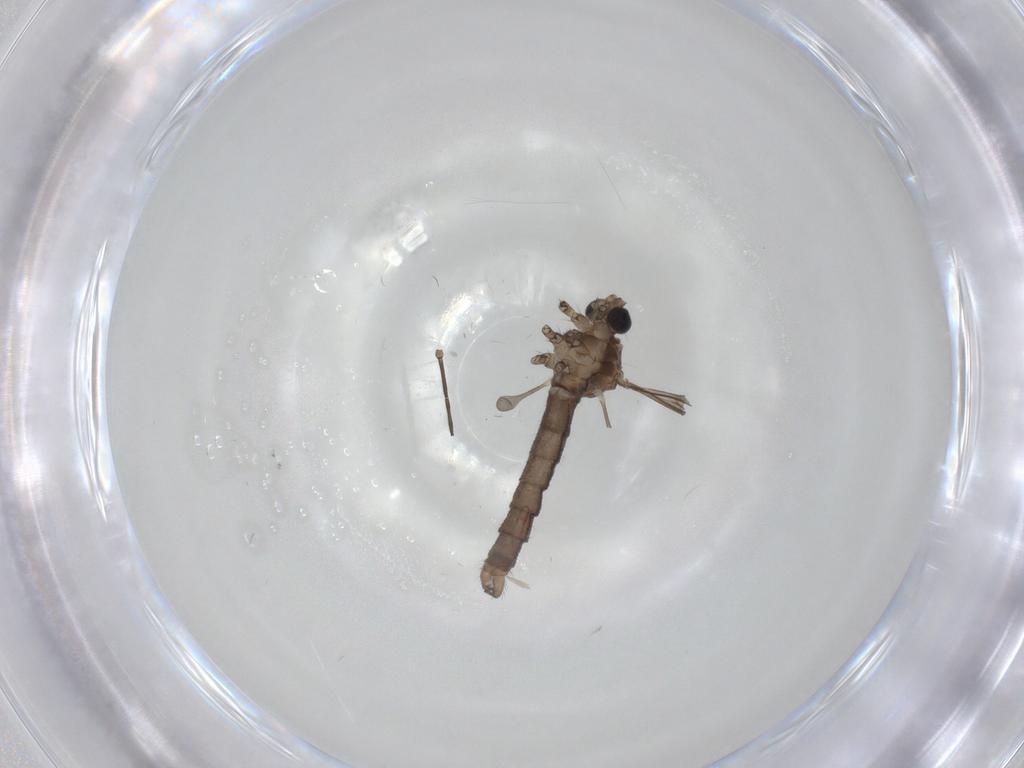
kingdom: Animalia
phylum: Arthropoda
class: Insecta
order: Diptera
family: Limoniidae
